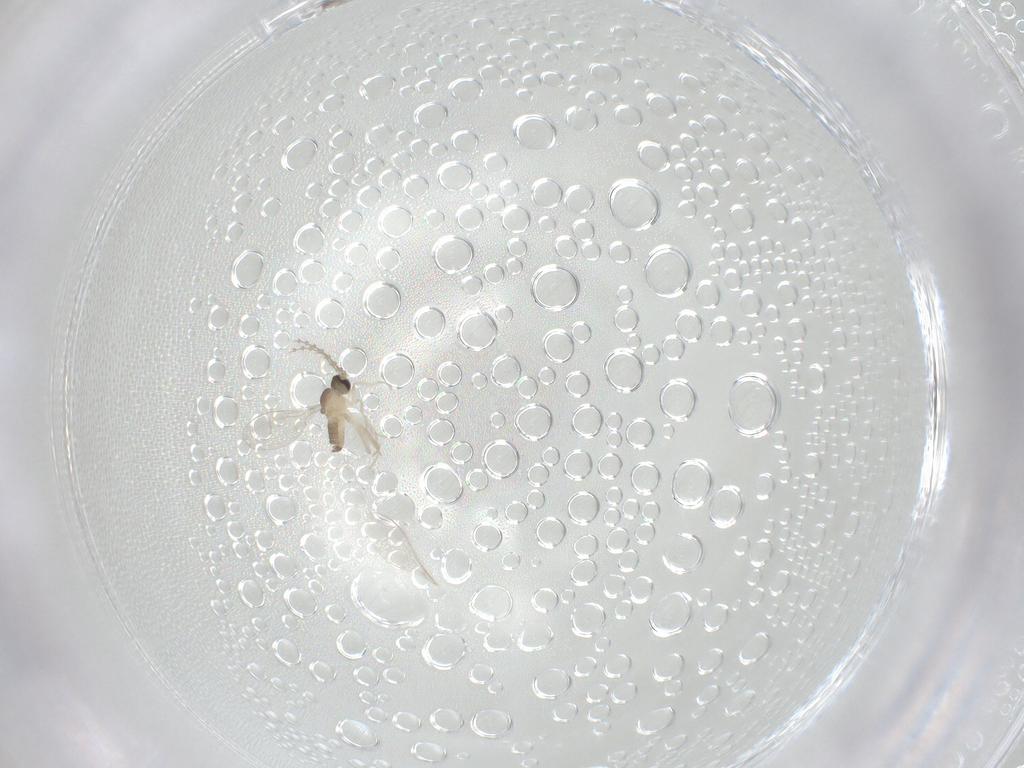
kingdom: Animalia
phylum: Arthropoda
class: Insecta
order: Diptera
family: Cecidomyiidae
